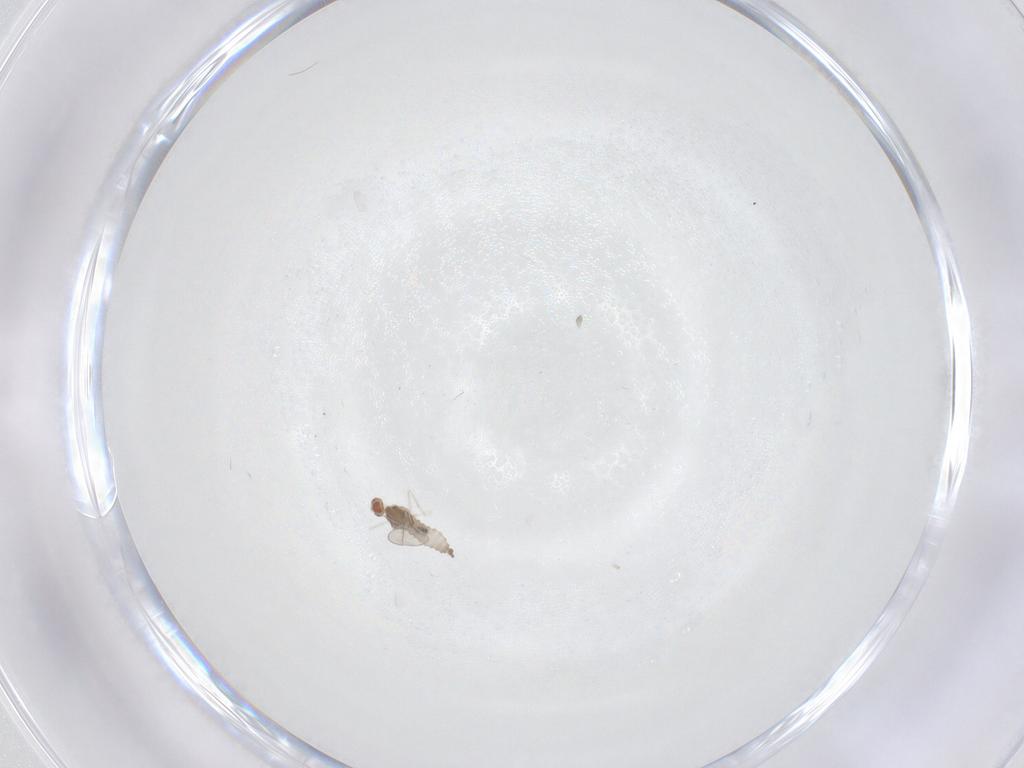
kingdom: Animalia
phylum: Arthropoda
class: Insecta
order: Diptera
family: Cecidomyiidae
